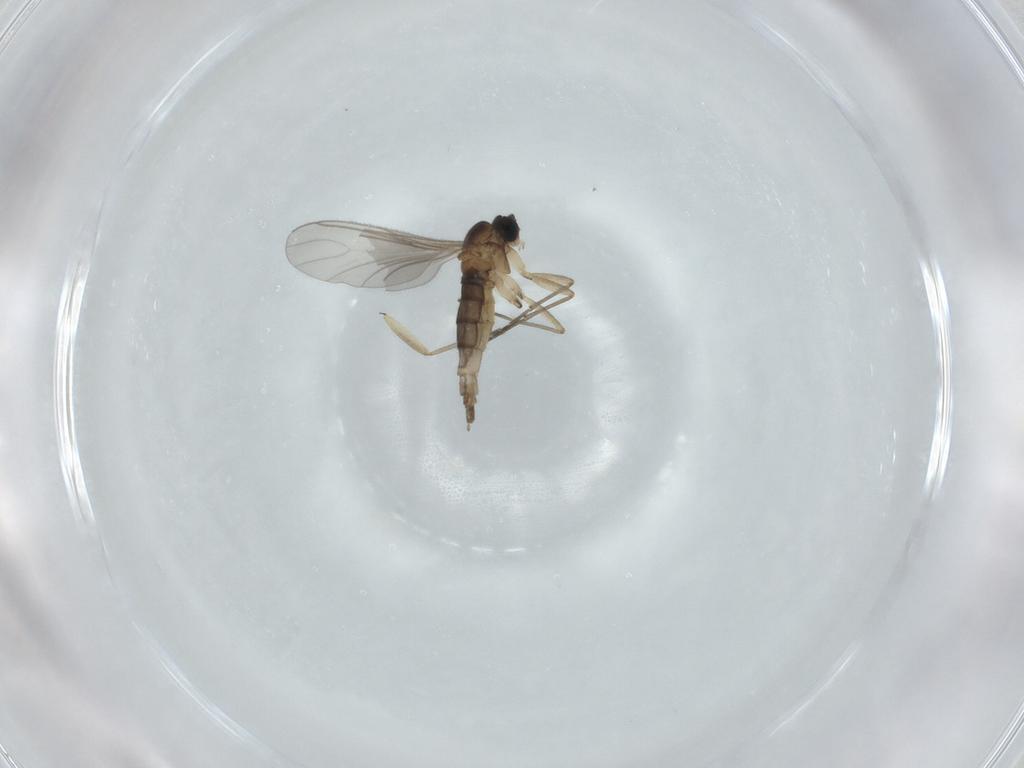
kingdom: Animalia
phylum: Arthropoda
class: Insecta
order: Diptera
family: Sciaridae
